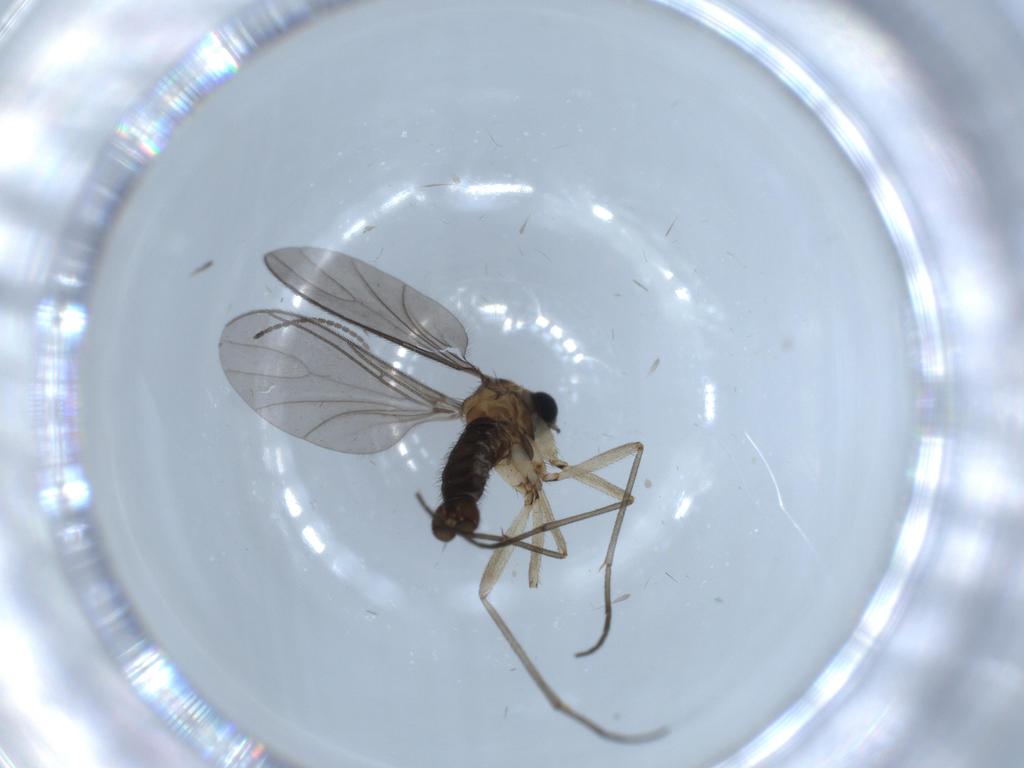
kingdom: Animalia
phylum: Arthropoda
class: Insecta
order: Diptera
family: Sciaridae
